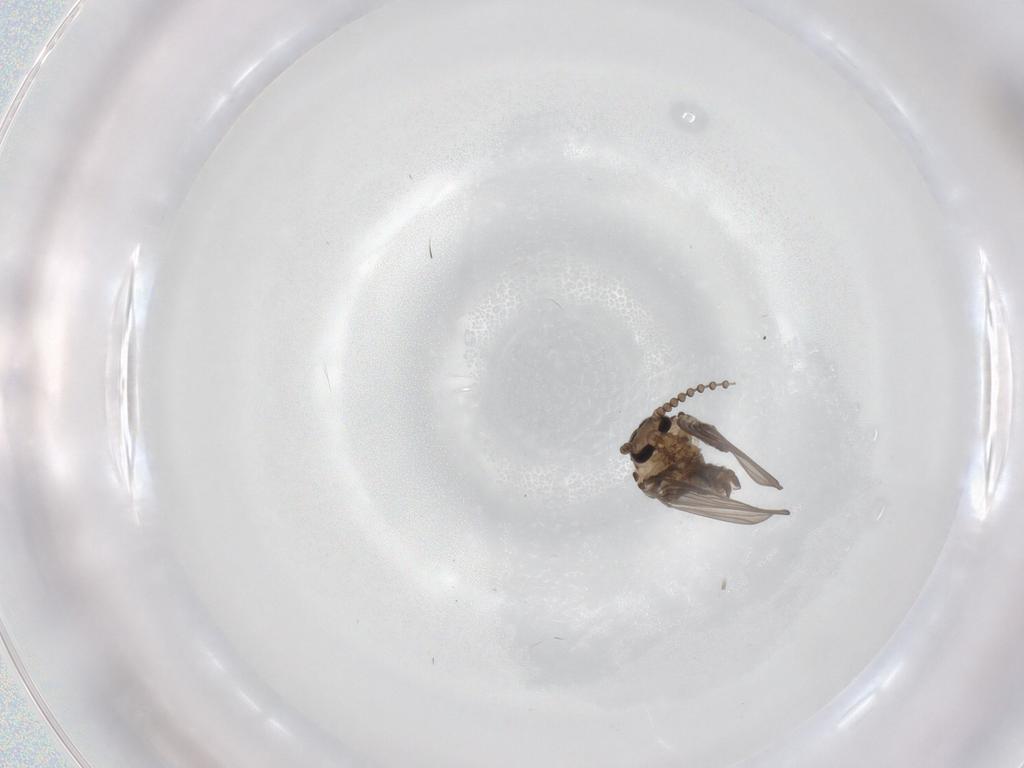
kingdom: Animalia
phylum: Arthropoda
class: Insecta
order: Diptera
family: Psychodidae
